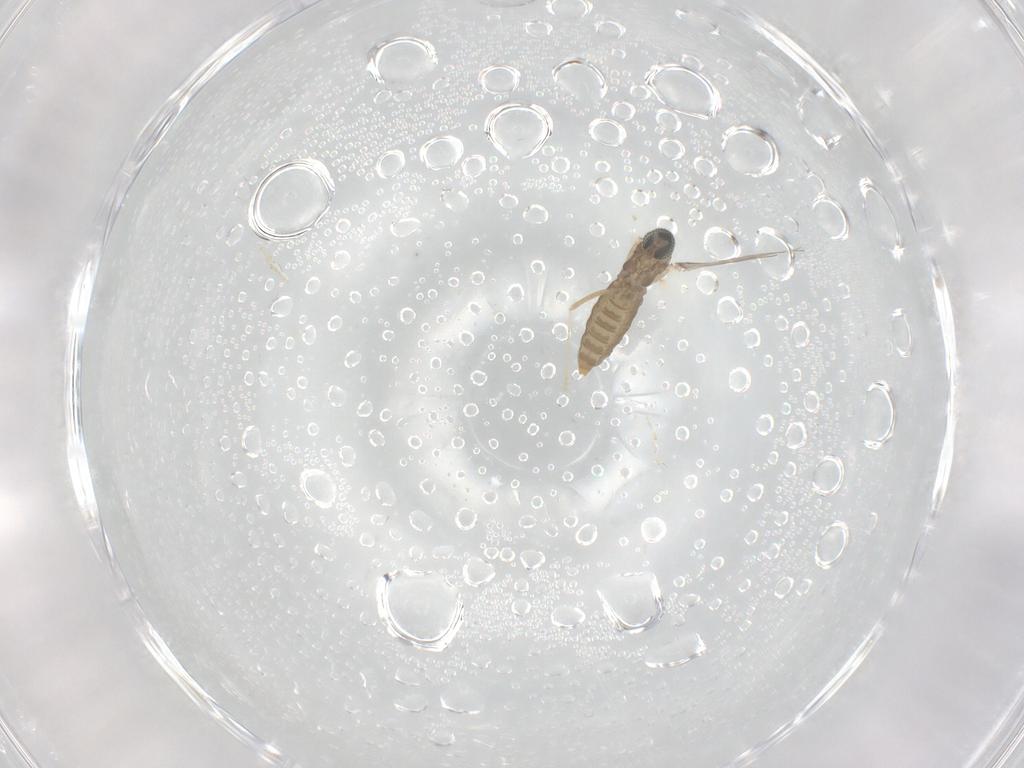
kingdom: Animalia
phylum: Arthropoda
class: Insecta
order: Diptera
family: Cecidomyiidae
